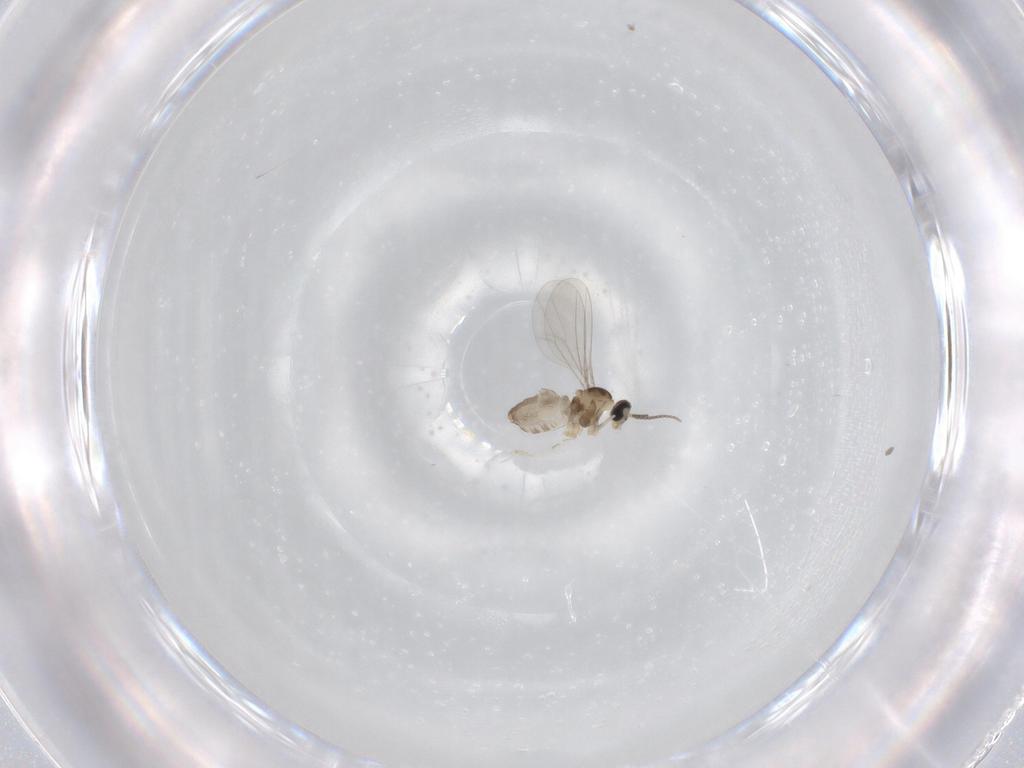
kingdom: Animalia
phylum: Arthropoda
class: Insecta
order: Diptera
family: Cecidomyiidae
